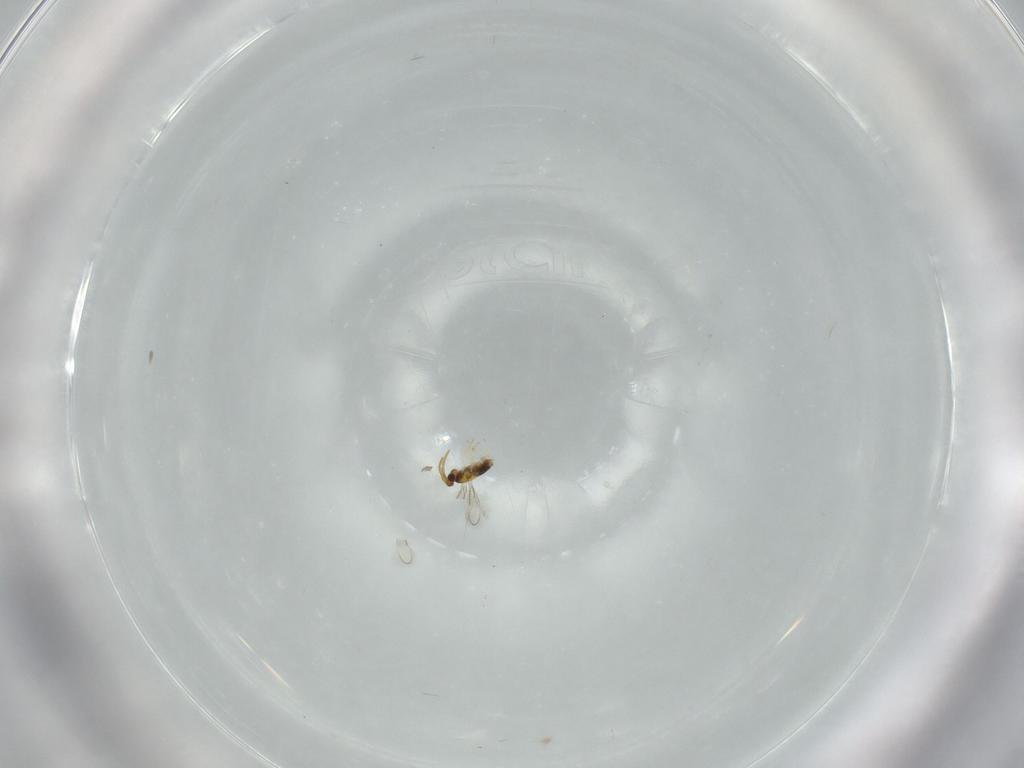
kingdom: Animalia
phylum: Arthropoda
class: Insecta
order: Hymenoptera
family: Aphelinidae
